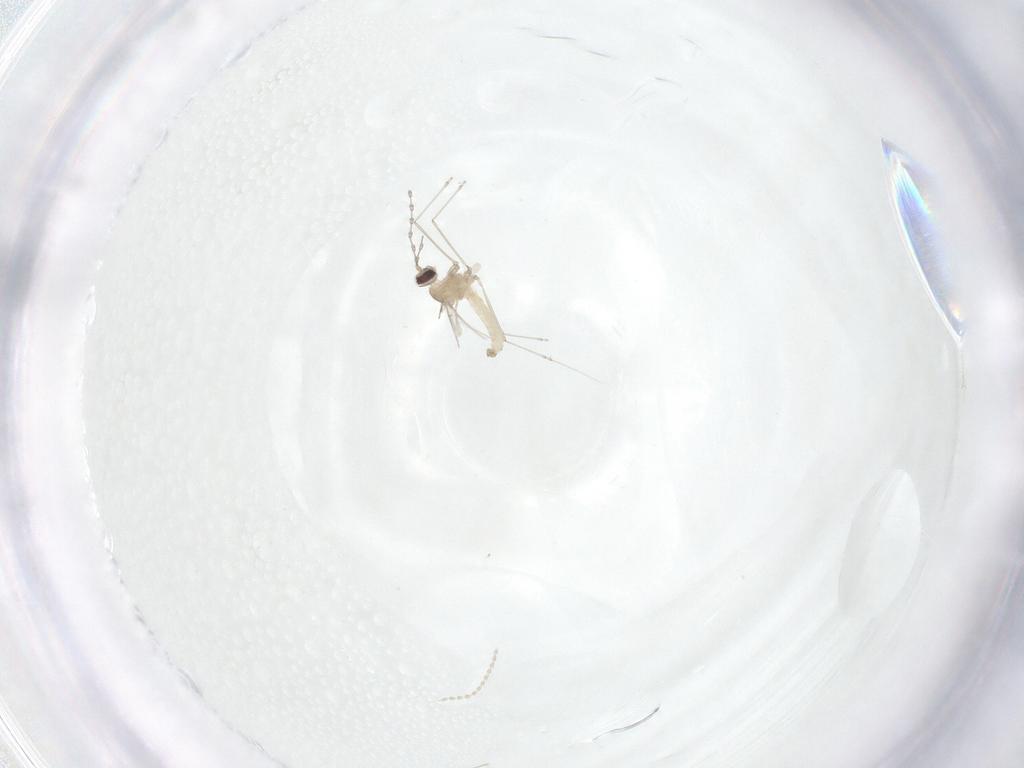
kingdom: Animalia
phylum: Arthropoda
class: Insecta
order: Diptera
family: Cecidomyiidae
